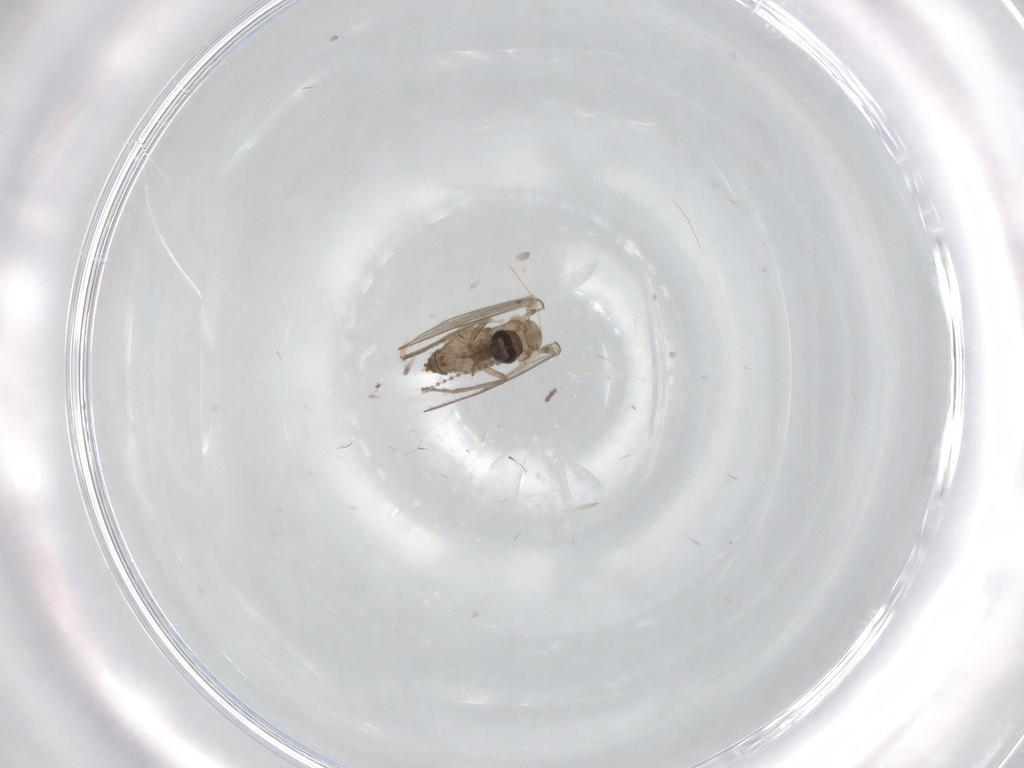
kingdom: Animalia
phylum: Arthropoda
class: Insecta
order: Diptera
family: Psychodidae
